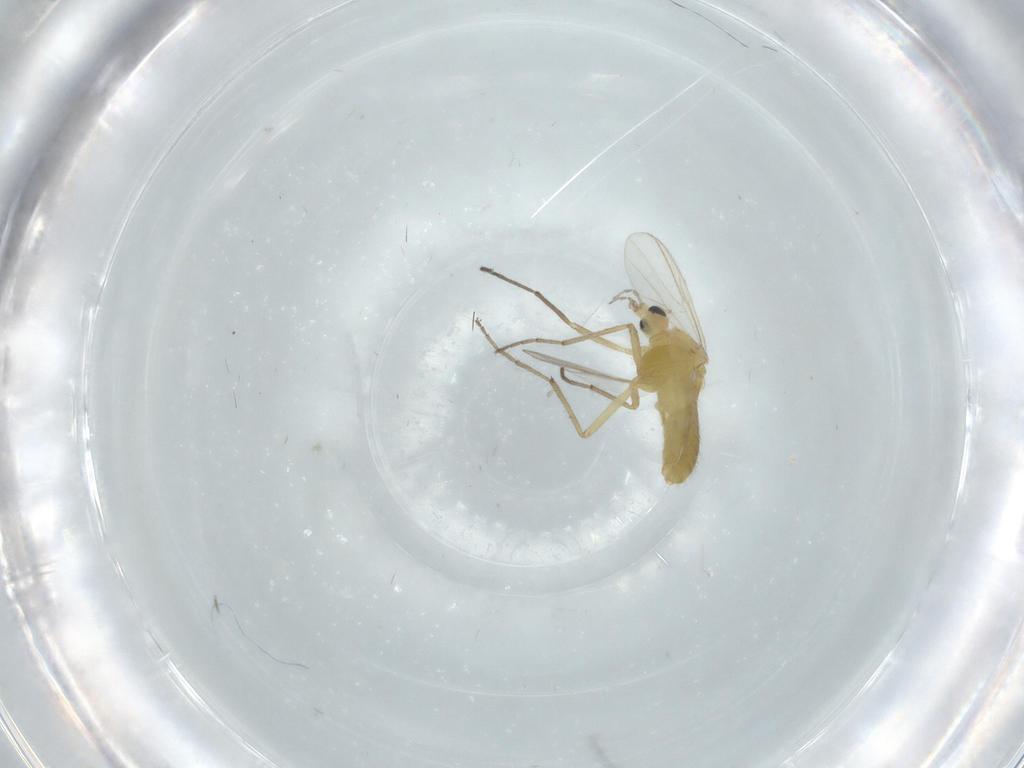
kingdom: Animalia
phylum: Arthropoda
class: Insecta
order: Diptera
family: Chironomidae
